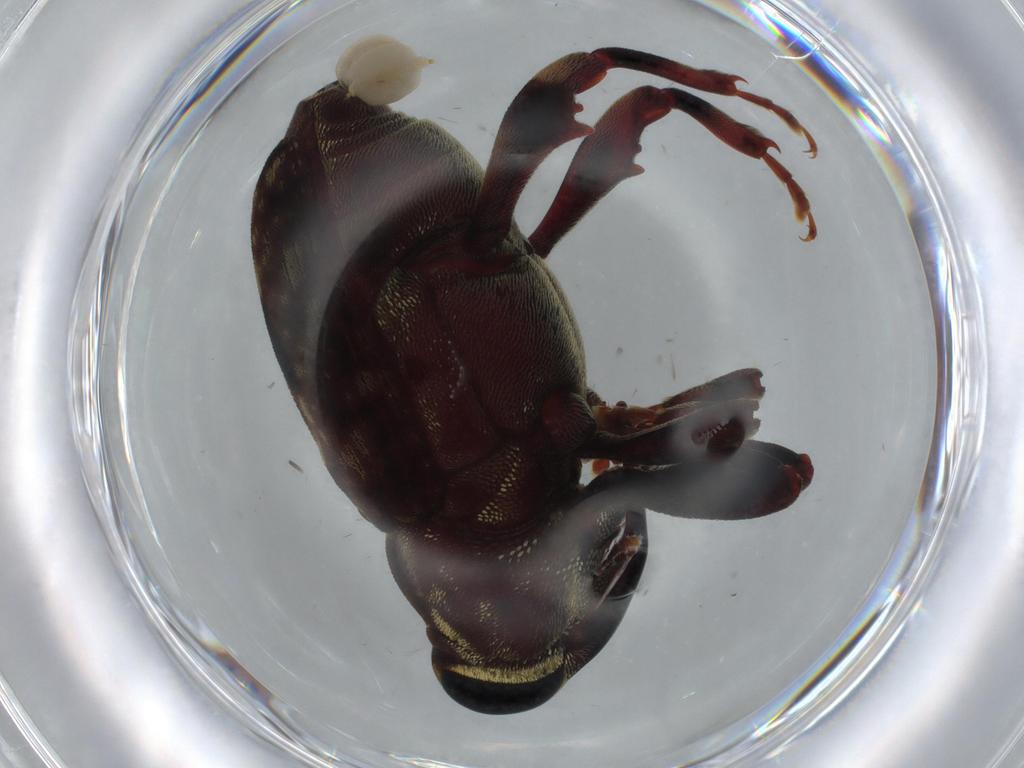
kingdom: Animalia
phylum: Arthropoda
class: Insecta
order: Coleoptera
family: Curculionidae
